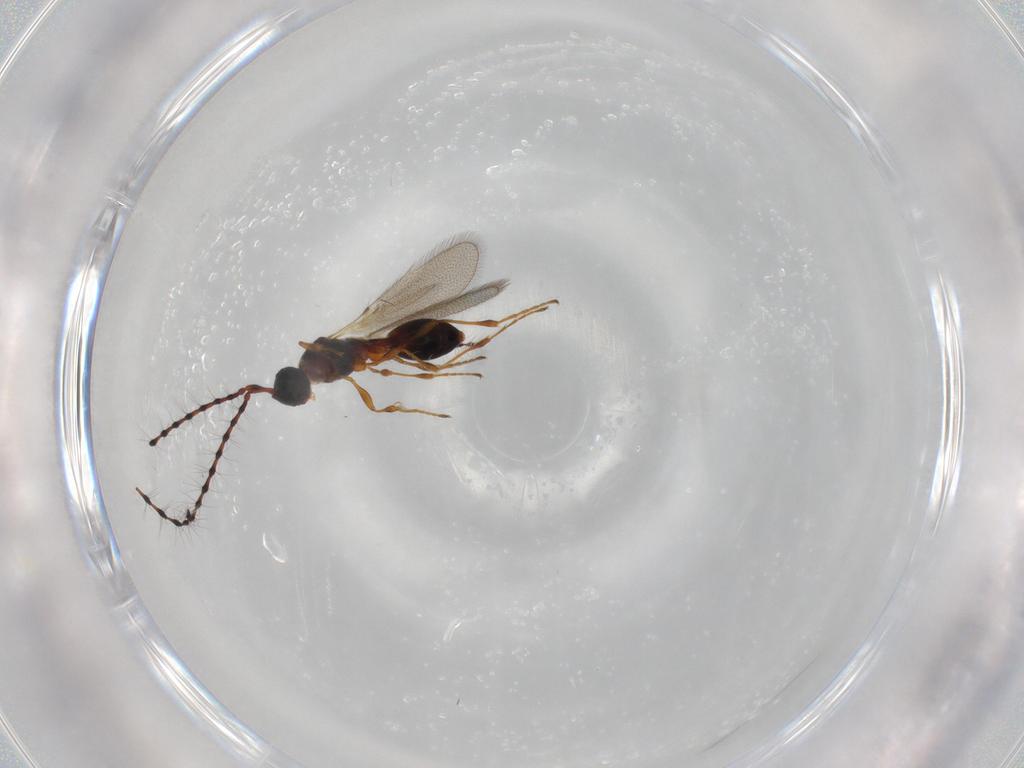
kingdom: Animalia
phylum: Arthropoda
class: Insecta
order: Hymenoptera
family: Diapriidae
